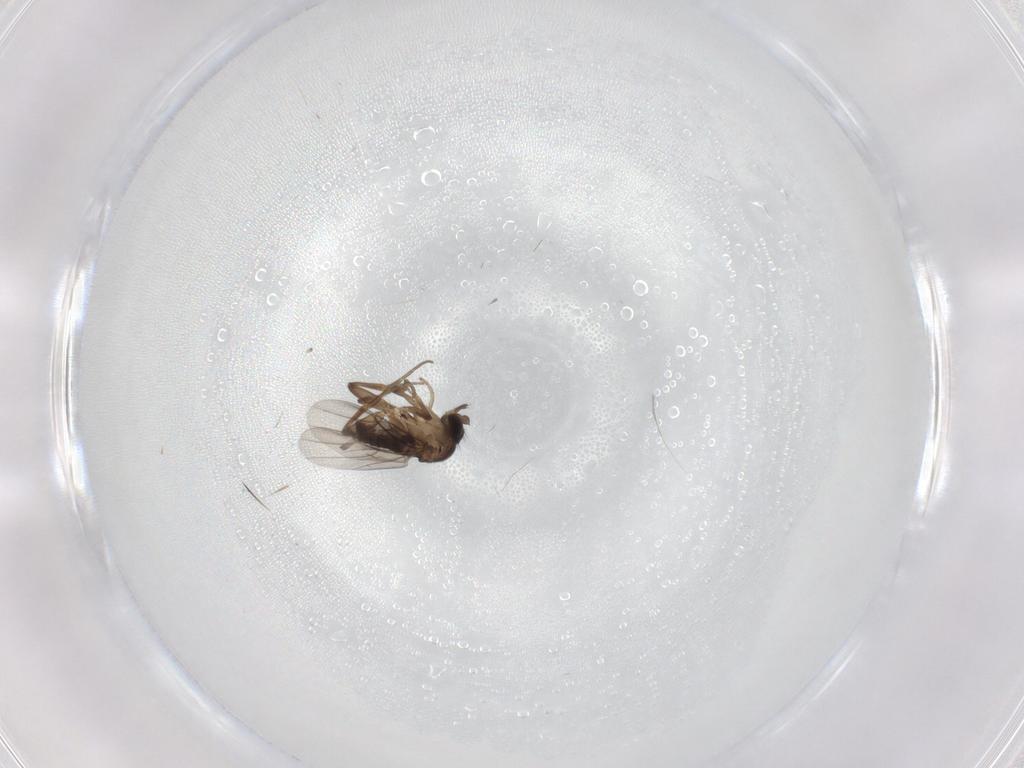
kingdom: Animalia
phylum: Arthropoda
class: Insecta
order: Diptera
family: Phoridae
